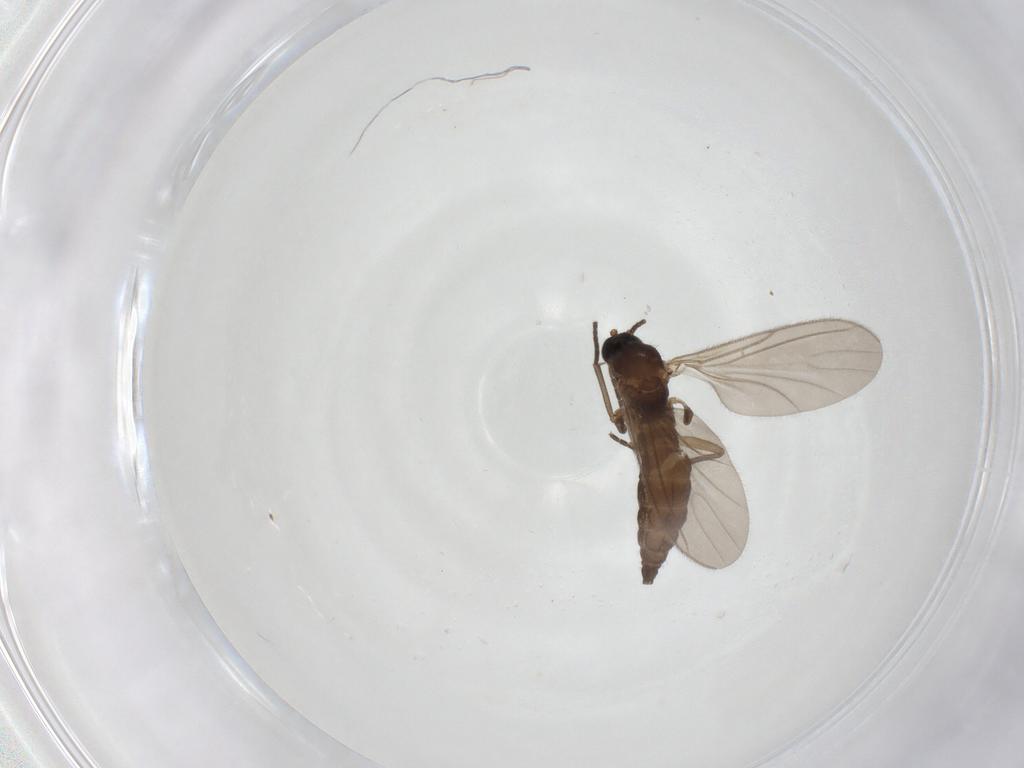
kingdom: Animalia
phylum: Arthropoda
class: Insecta
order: Diptera
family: Sciaridae
